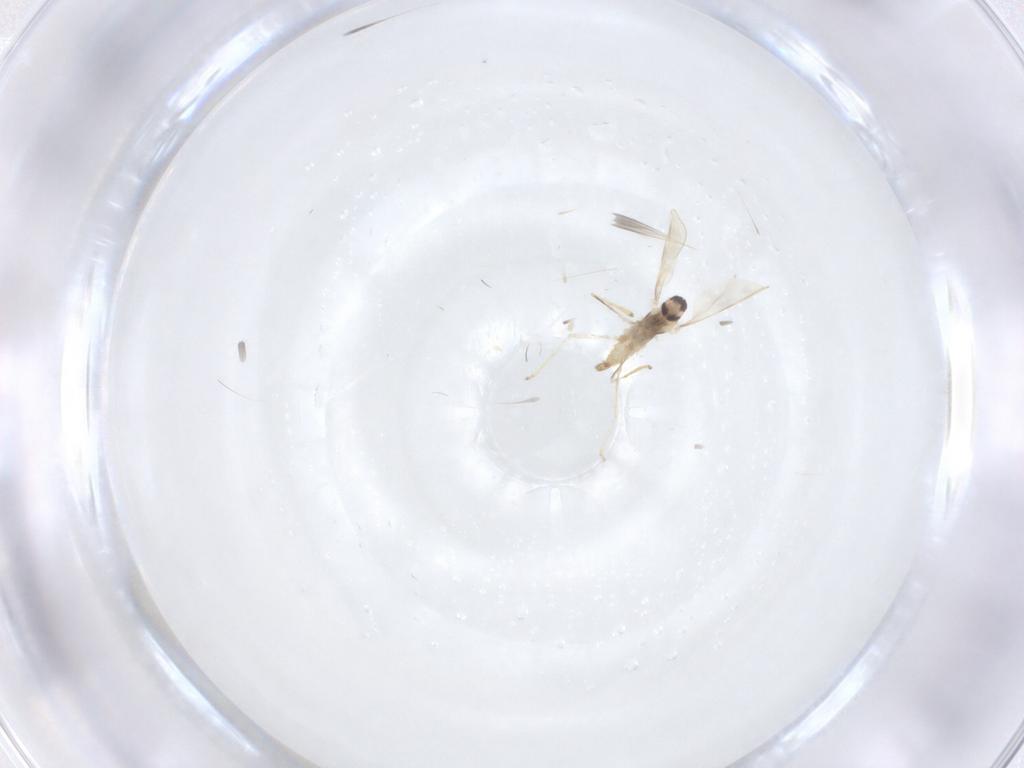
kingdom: Animalia
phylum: Arthropoda
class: Insecta
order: Diptera
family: Cecidomyiidae
